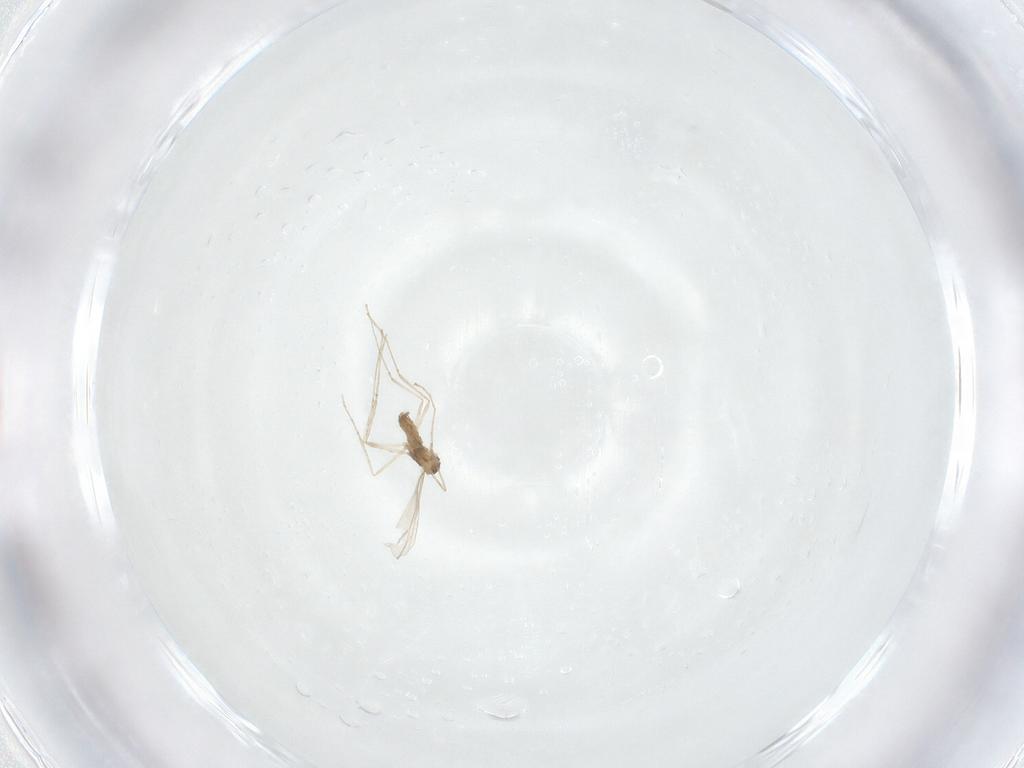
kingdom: Animalia
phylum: Arthropoda
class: Insecta
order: Diptera
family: Cecidomyiidae
